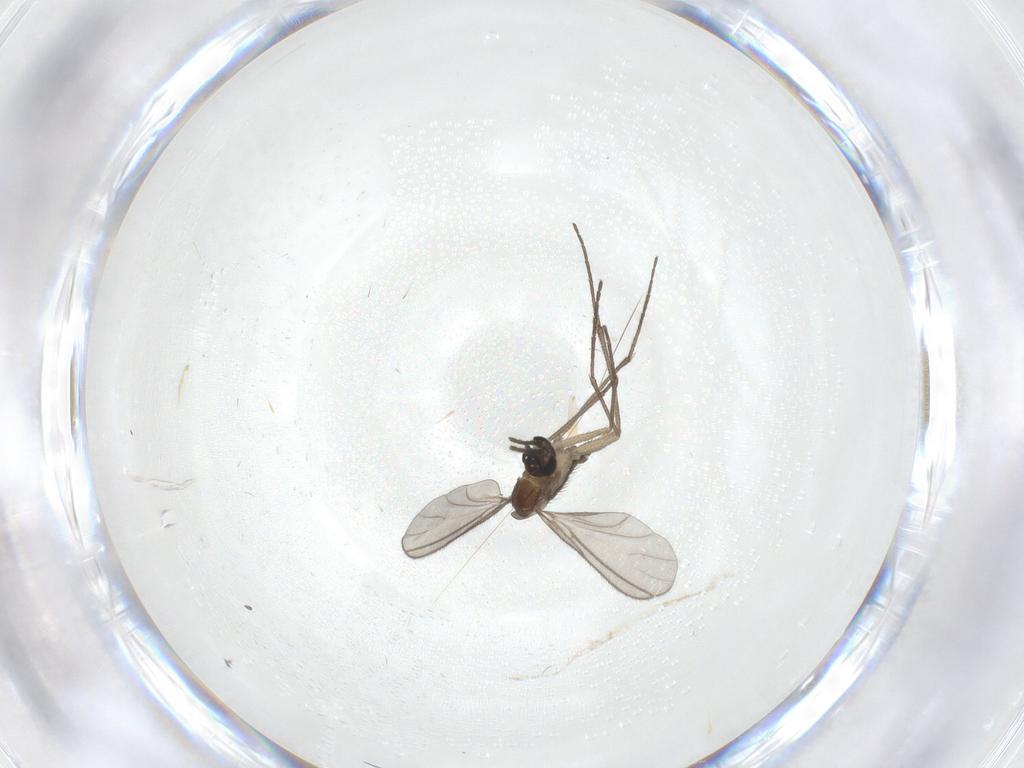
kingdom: Animalia
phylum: Arthropoda
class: Insecta
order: Diptera
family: Sciaridae
